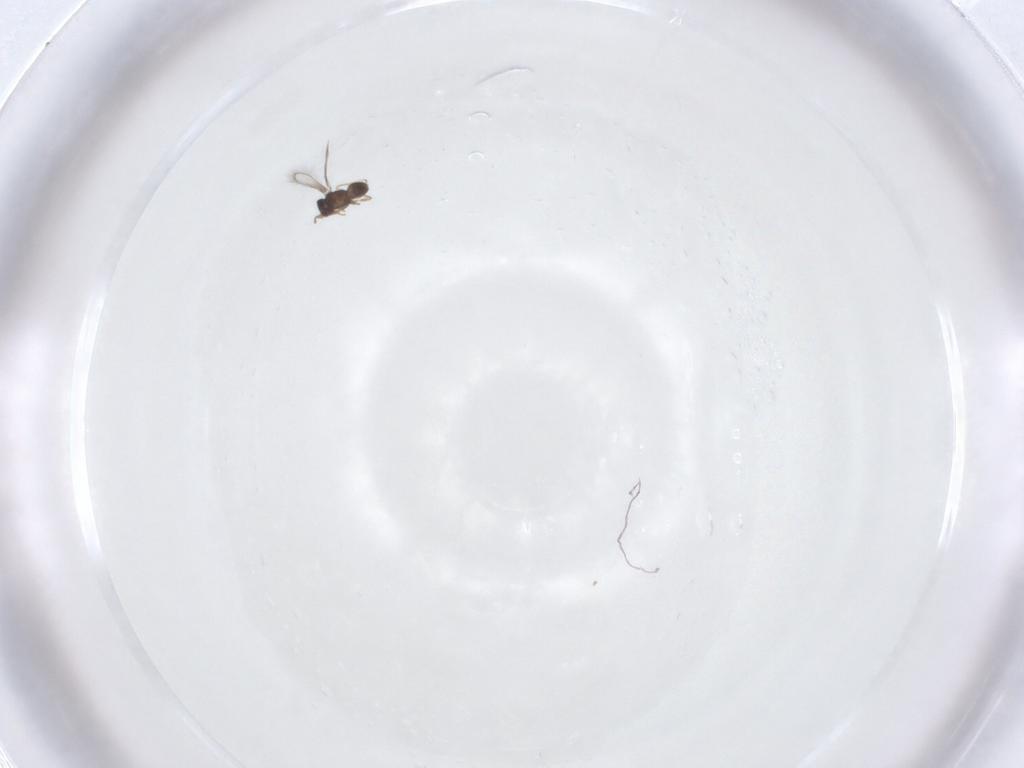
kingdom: Animalia
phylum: Arthropoda
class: Insecta
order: Hymenoptera
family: Mymaridae
